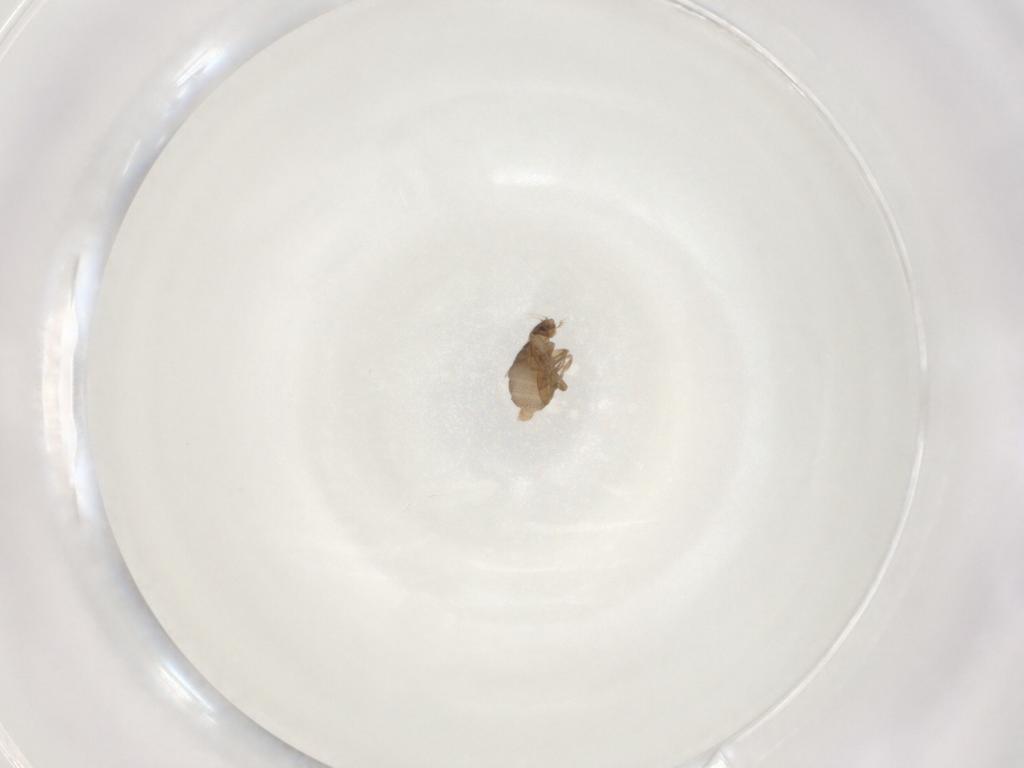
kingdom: Animalia
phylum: Arthropoda
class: Insecta
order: Diptera
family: Phoridae
